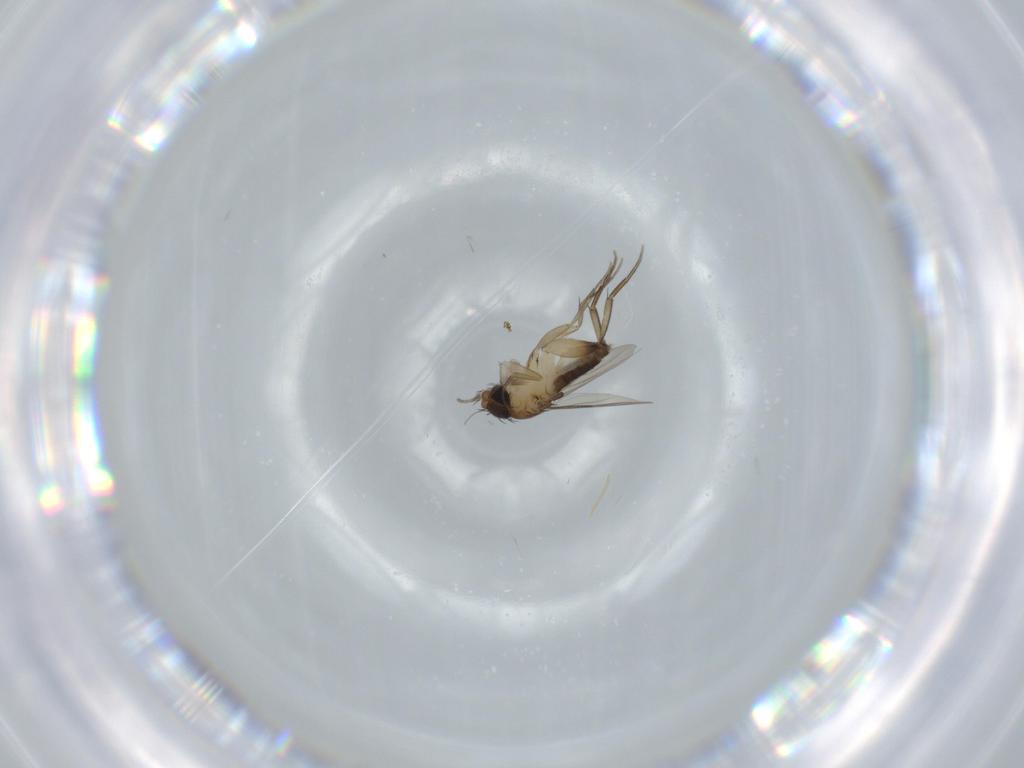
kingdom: Animalia
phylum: Arthropoda
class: Insecta
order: Diptera
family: Phoridae
